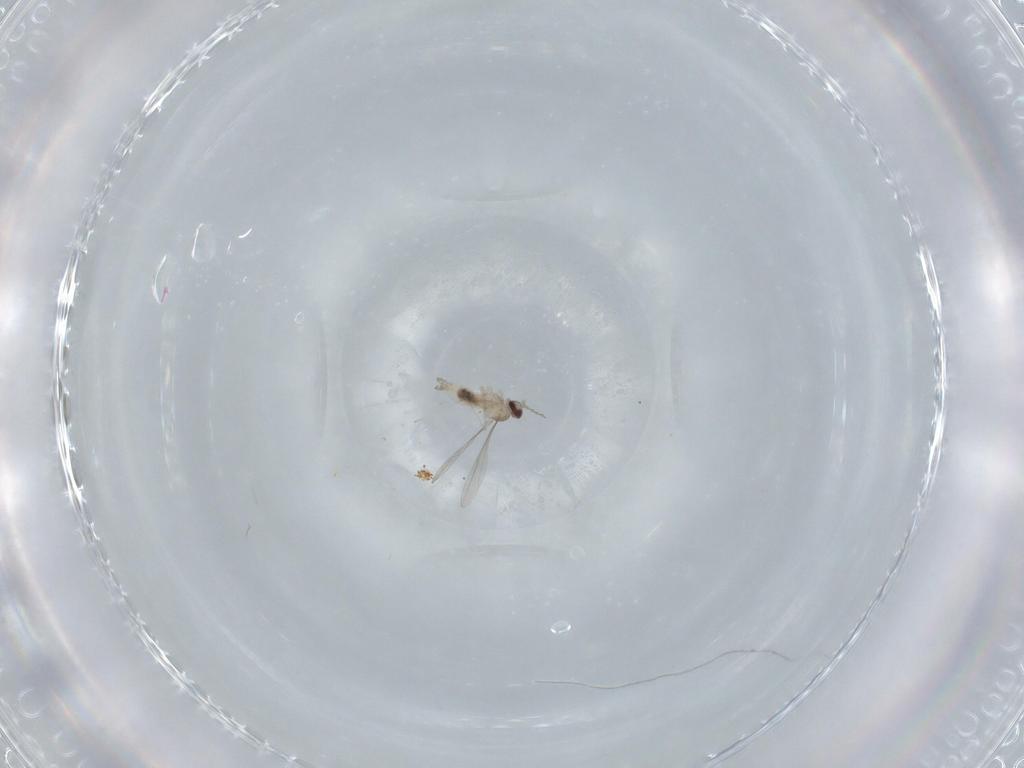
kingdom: Animalia
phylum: Arthropoda
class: Insecta
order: Diptera
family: Cecidomyiidae
